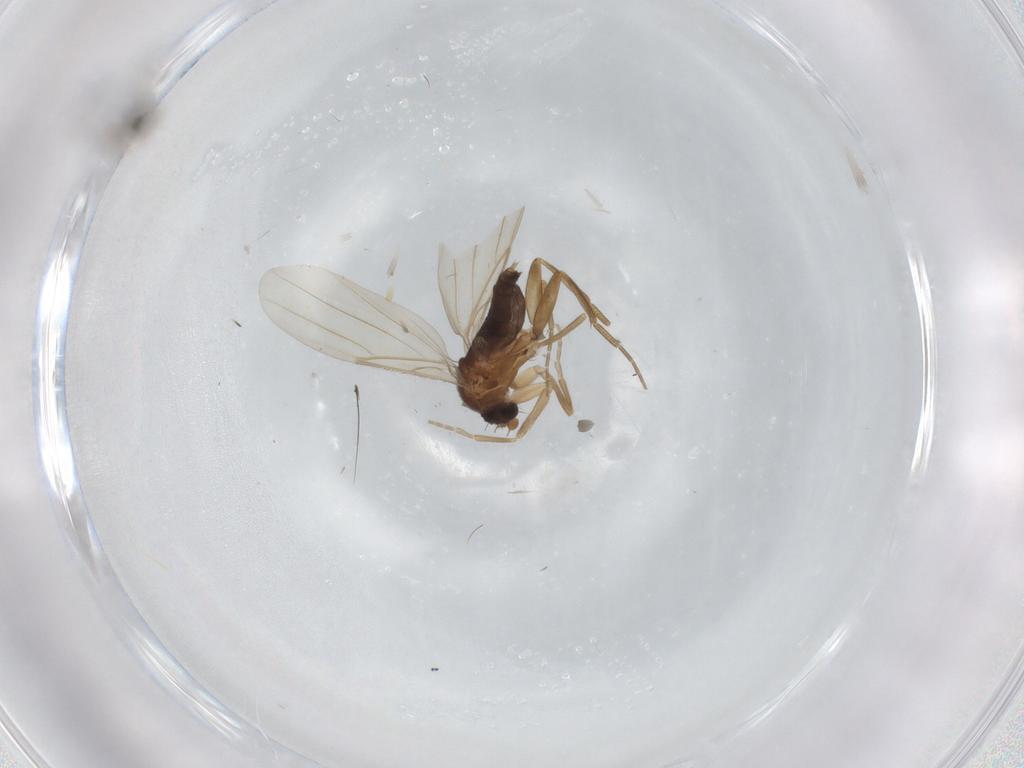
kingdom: Animalia
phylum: Arthropoda
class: Insecta
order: Diptera
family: Phoridae
